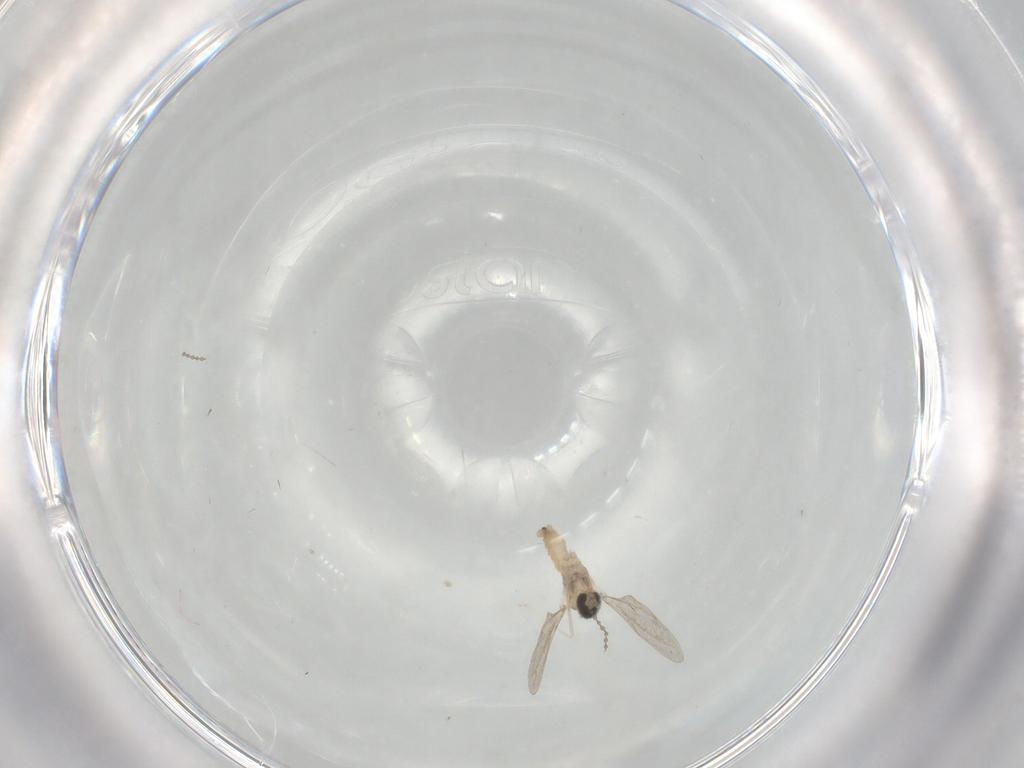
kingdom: Animalia
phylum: Arthropoda
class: Insecta
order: Diptera
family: Cecidomyiidae
